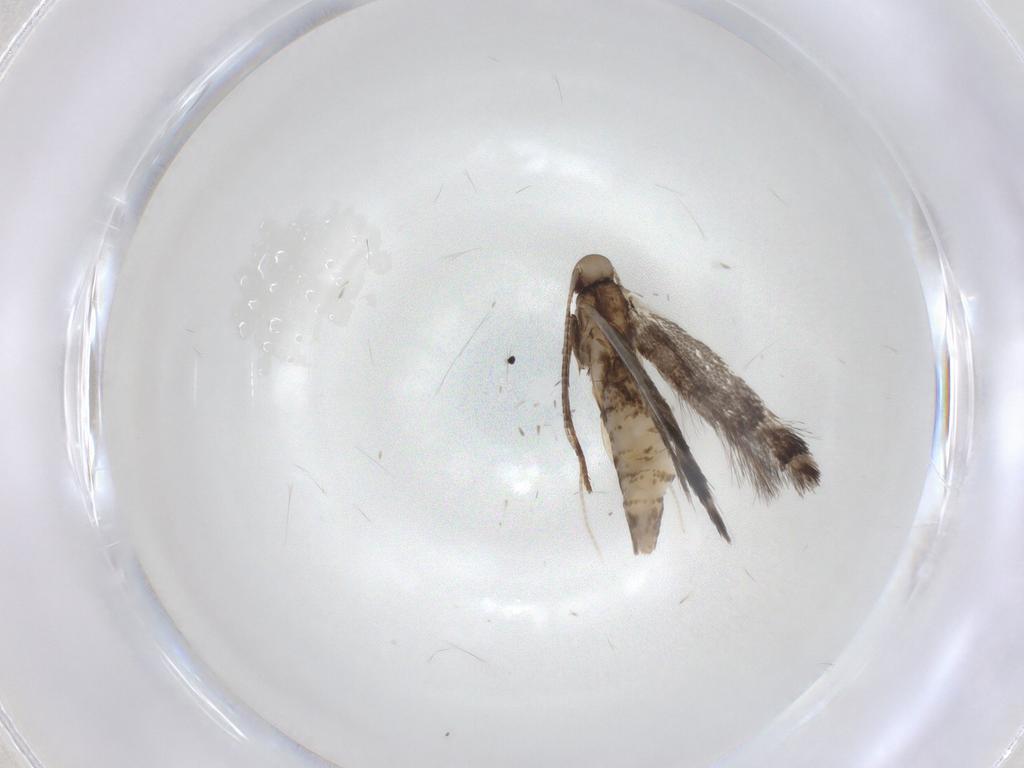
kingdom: Animalia
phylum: Arthropoda
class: Insecta
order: Lepidoptera
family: Gracillariidae
